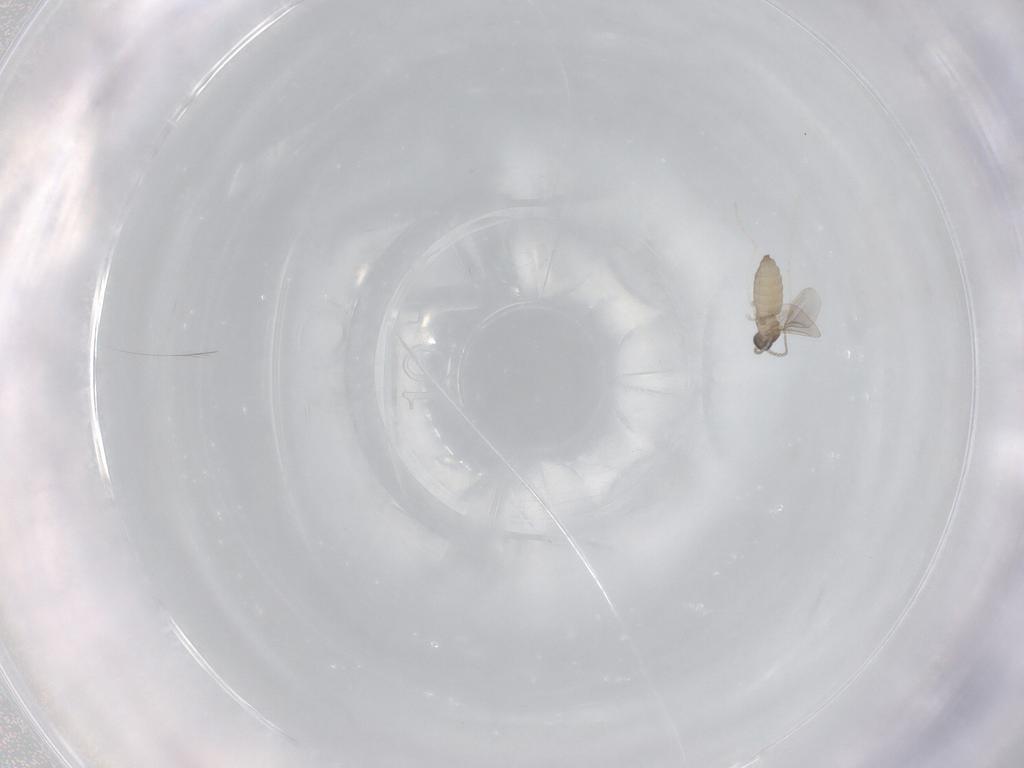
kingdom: Animalia
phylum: Arthropoda
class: Insecta
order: Diptera
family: Cecidomyiidae
